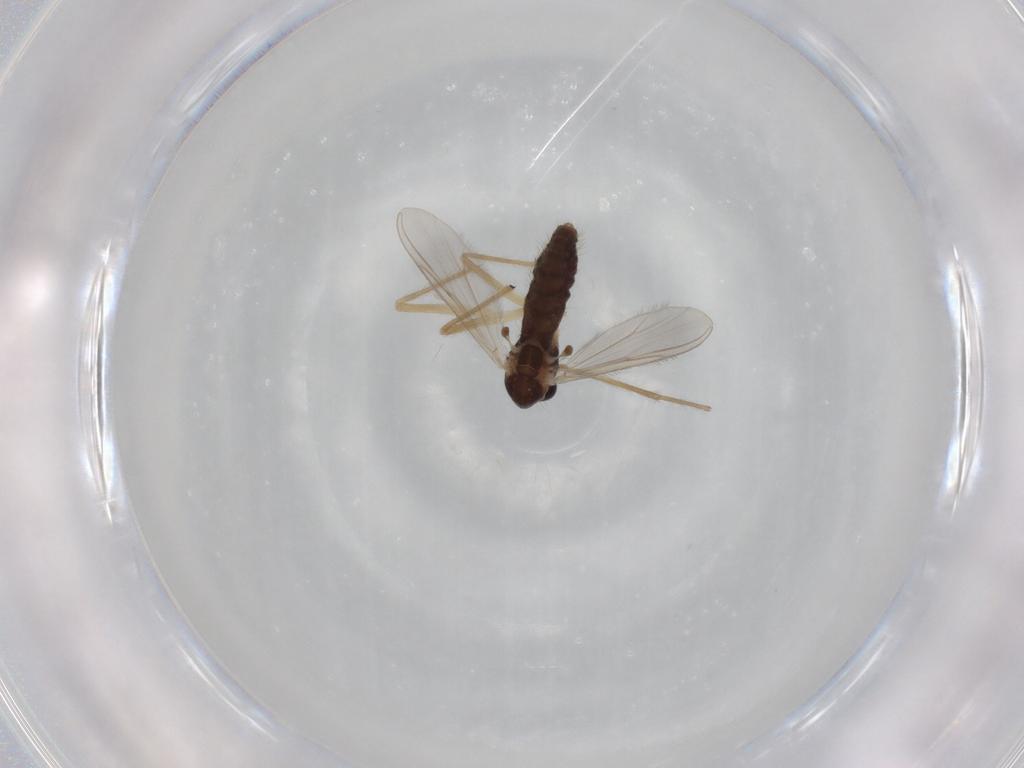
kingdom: Animalia
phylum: Arthropoda
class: Insecta
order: Diptera
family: Chironomidae
